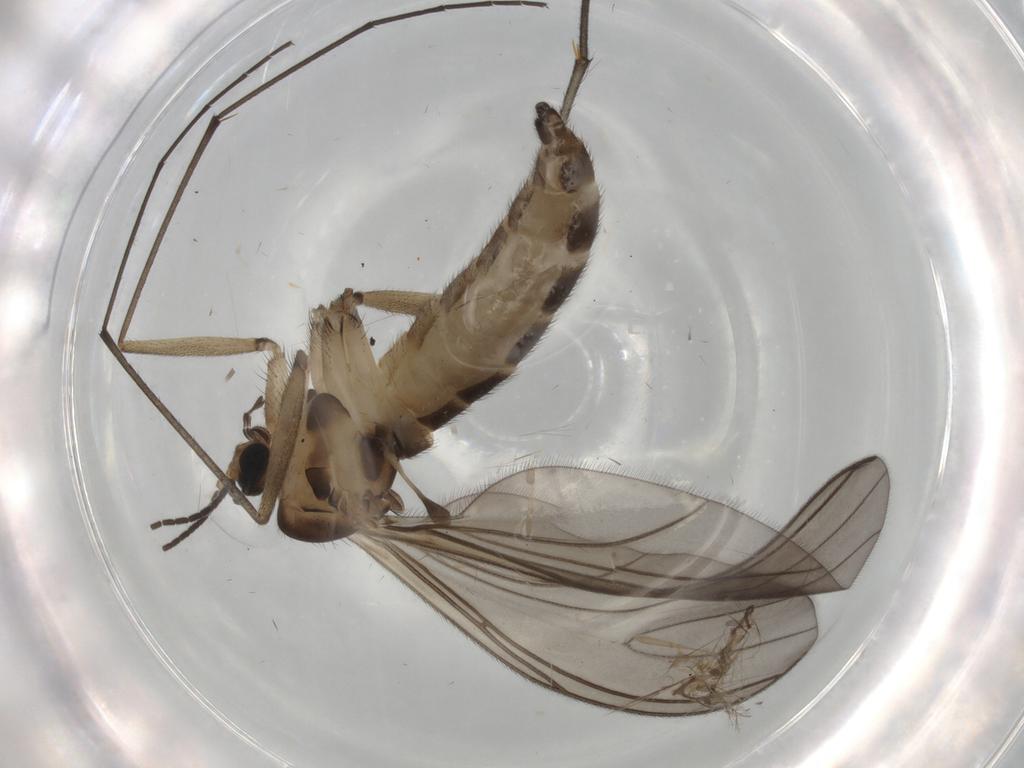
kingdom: Animalia
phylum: Arthropoda
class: Insecta
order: Diptera
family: Sciaridae
